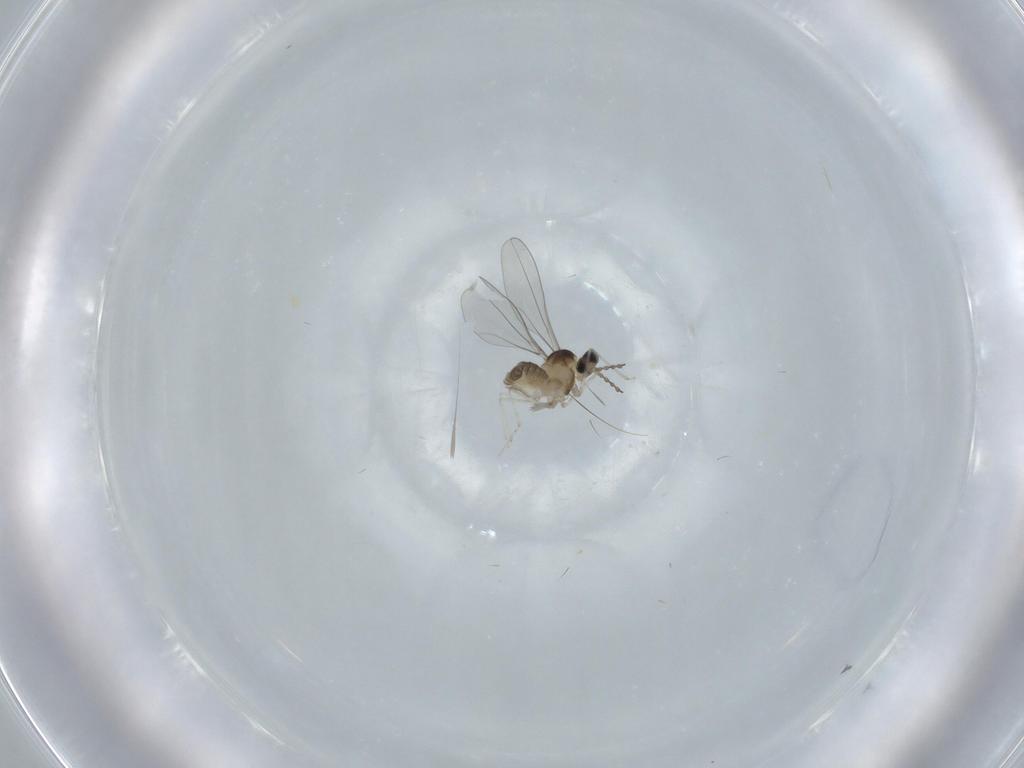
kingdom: Animalia
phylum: Arthropoda
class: Insecta
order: Diptera
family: Cecidomyiidae
